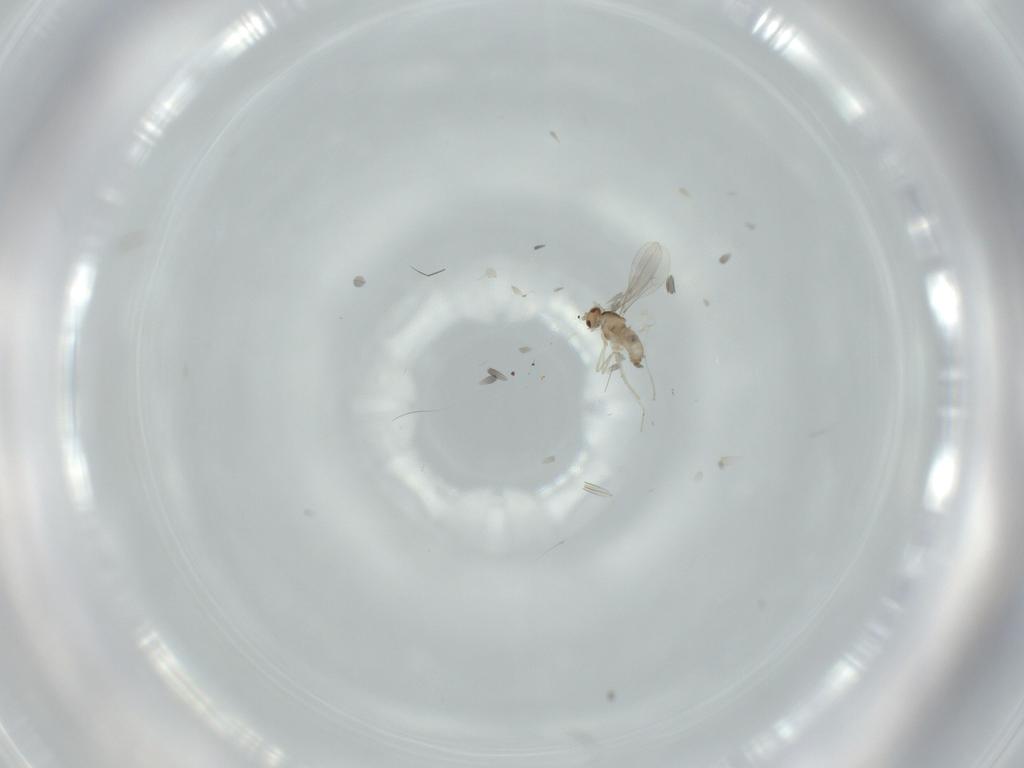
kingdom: Animalia
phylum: Arthropoda
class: Insecta
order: Diptera
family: Cecidomyiidae
